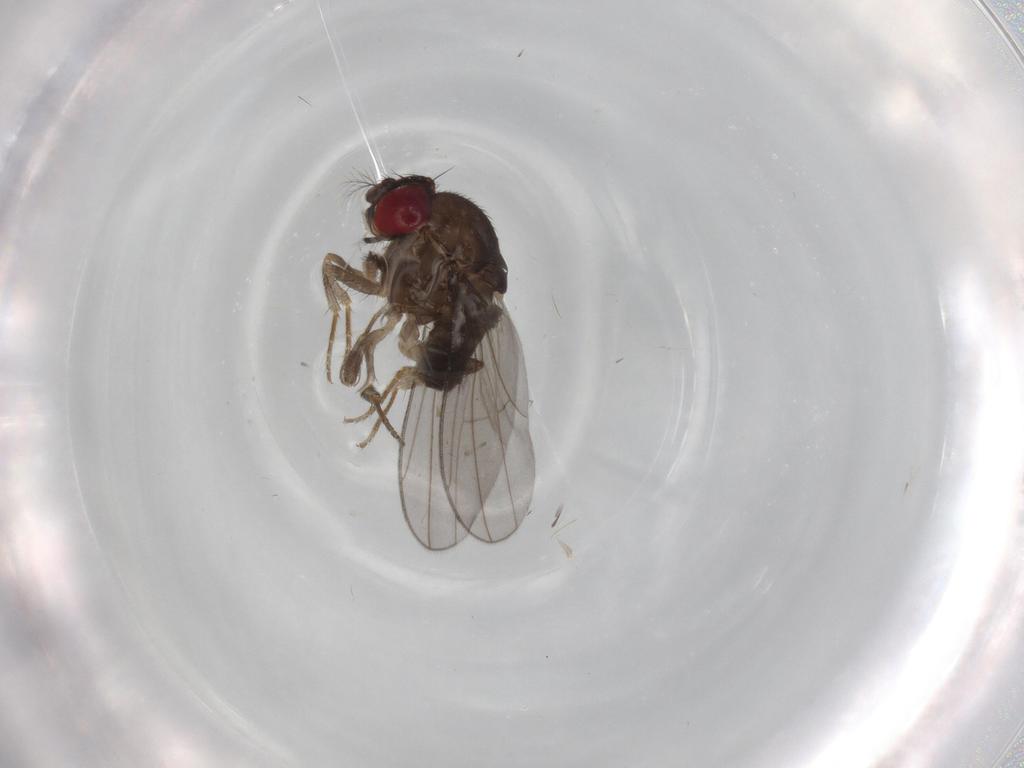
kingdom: Animalia
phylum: Arthropoda
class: Insecta
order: Diptera
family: Drosophilidae
